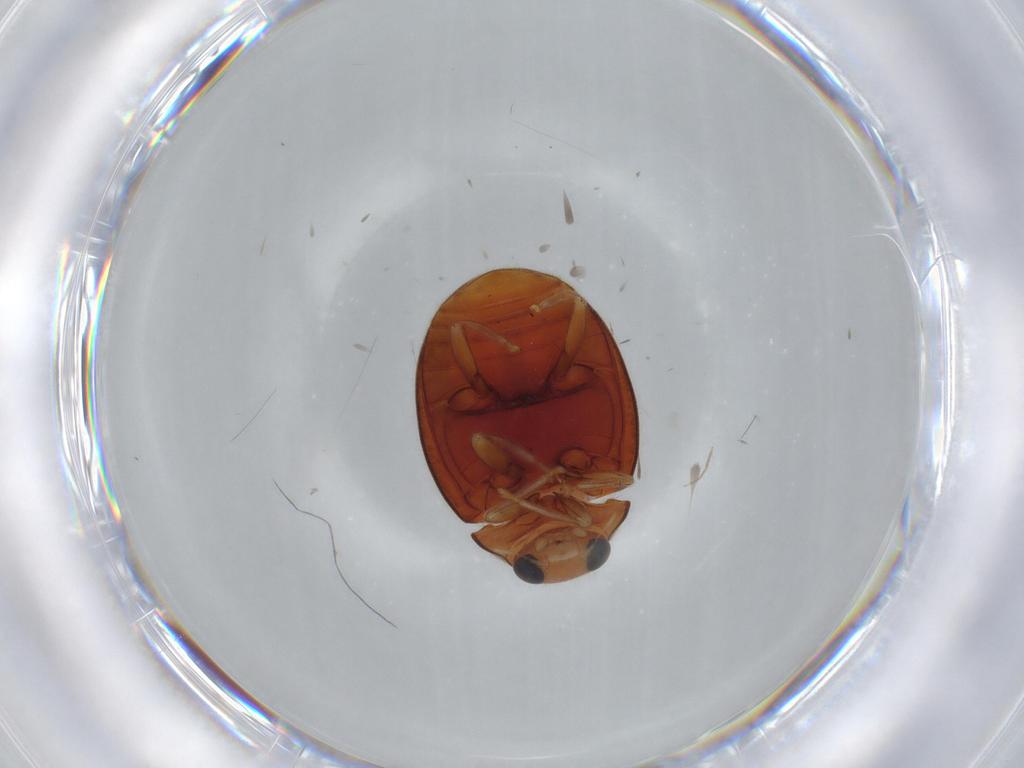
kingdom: Animalia
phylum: Arthropoda
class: Insecta
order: Coleoptera
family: Coccinellidae
